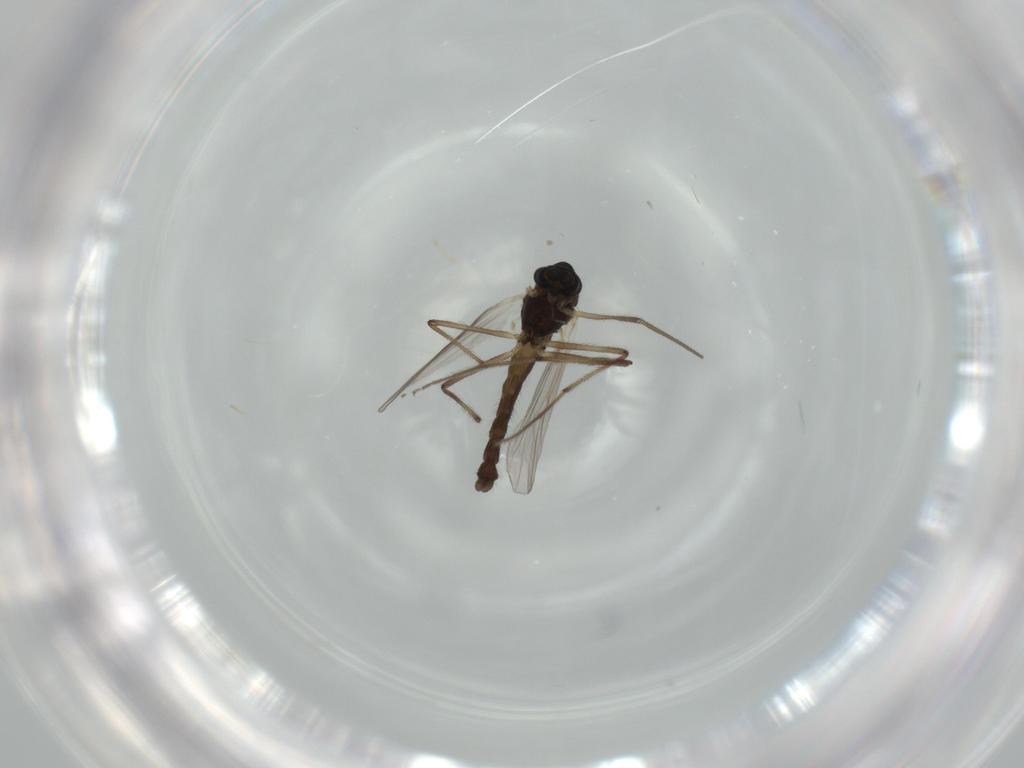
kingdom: Animalia
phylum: Arthropoda
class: Insecta
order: Diptera
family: Chironomidae
